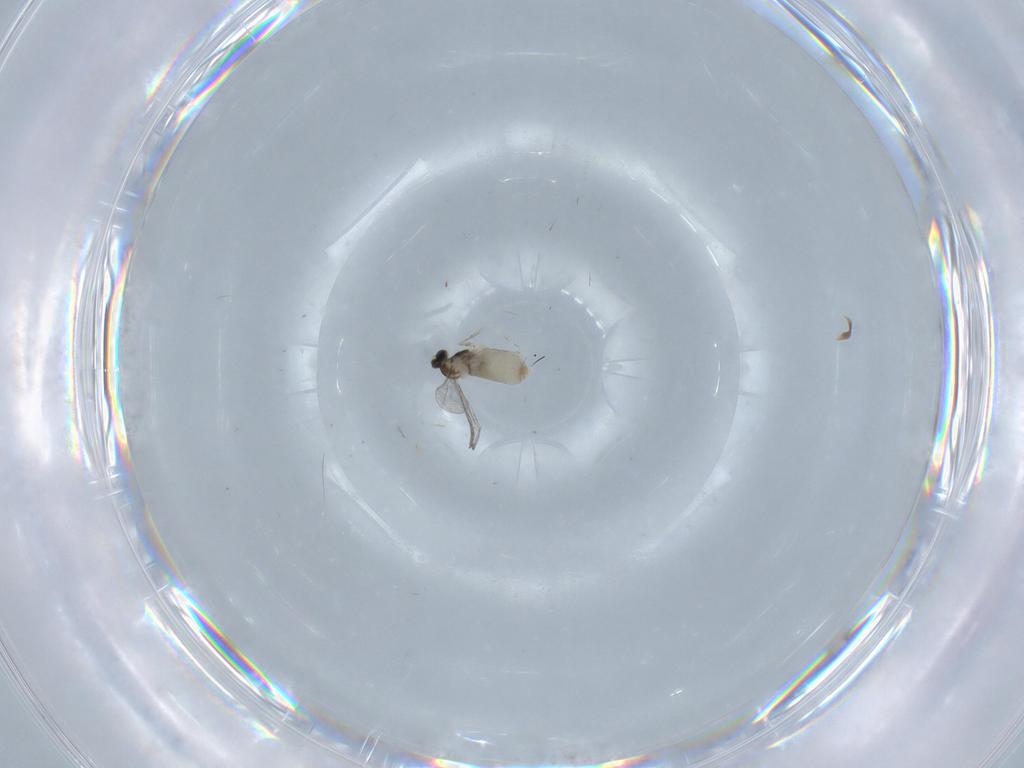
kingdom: Animalia
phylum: Arthropoda
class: Insecta
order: Diptera
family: Cecidomyiidae
